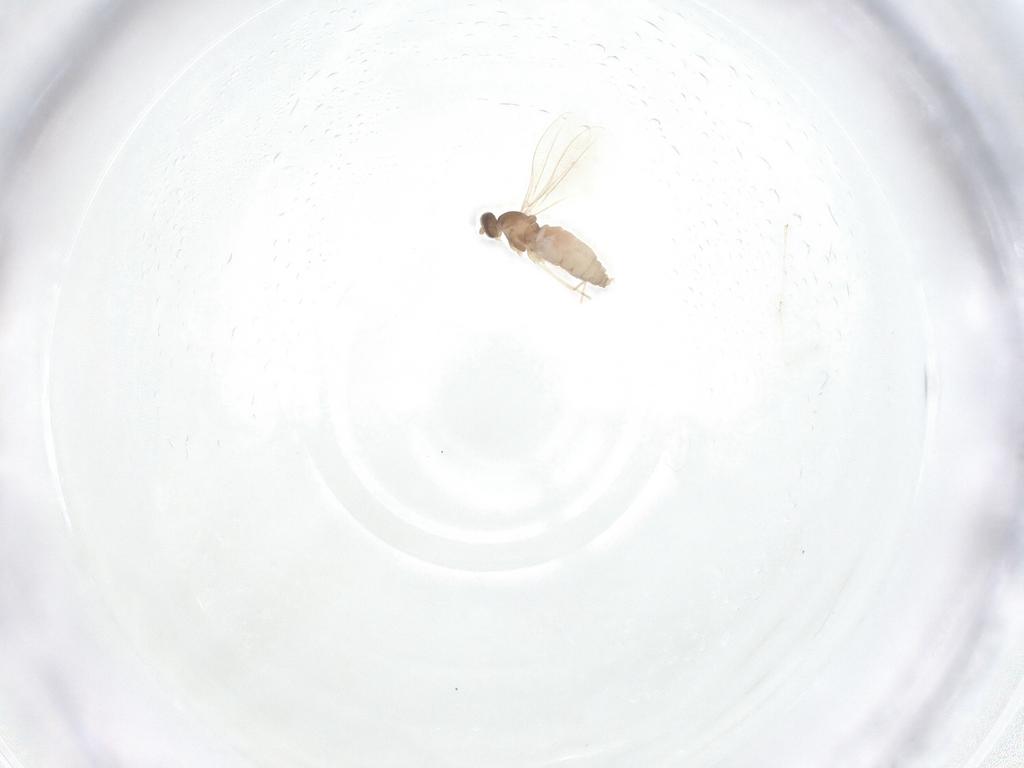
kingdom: Animalia
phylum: Arthropoda
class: Insecta
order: Diptera
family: Cecidomyiidae
